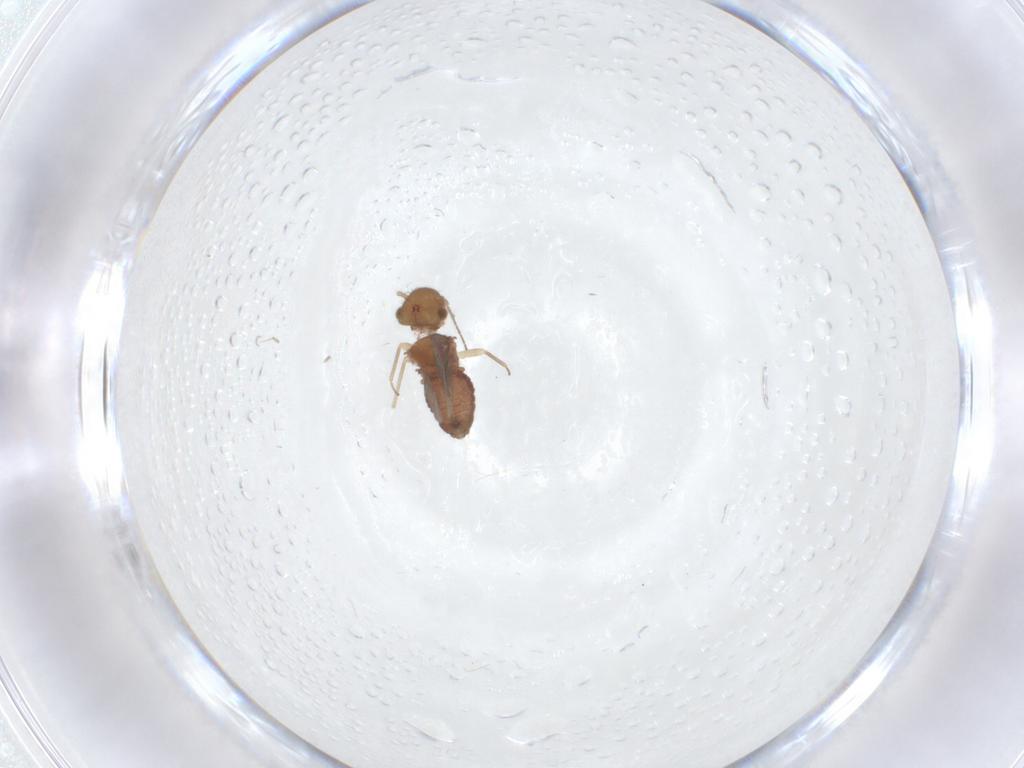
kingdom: Animalia
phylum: Arthropoda
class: Insecta
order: Psocodea
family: Ectopsocidae
